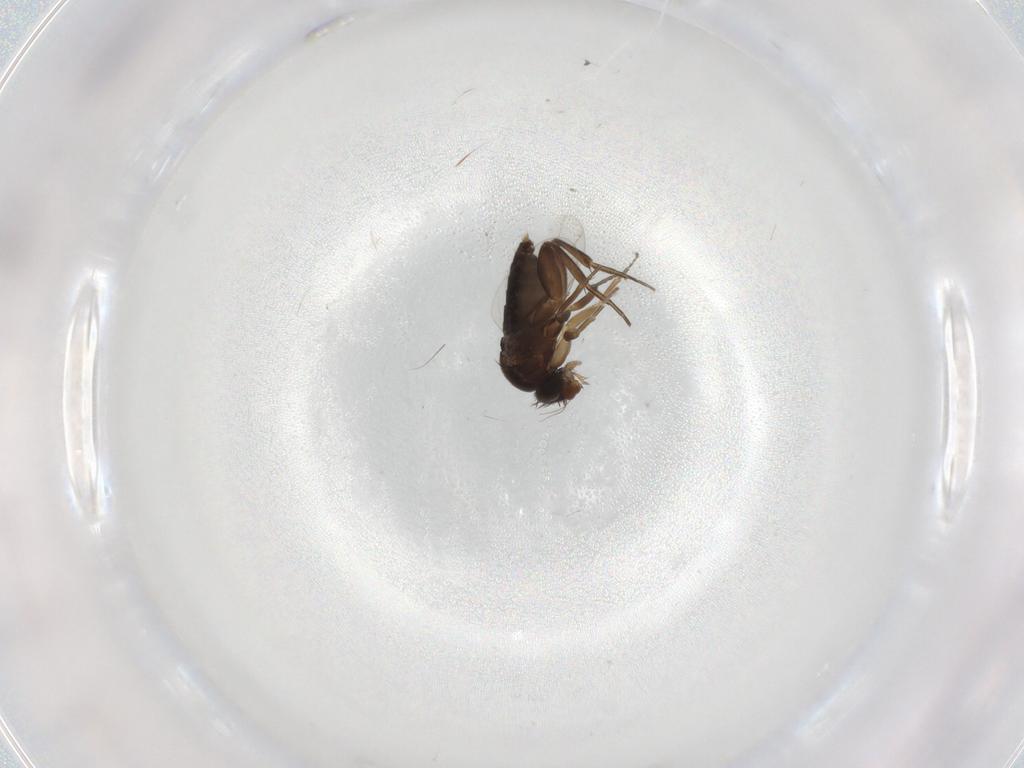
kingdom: Animalia
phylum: Arthropoda
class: Insecta
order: Diptera
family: Phoridae
